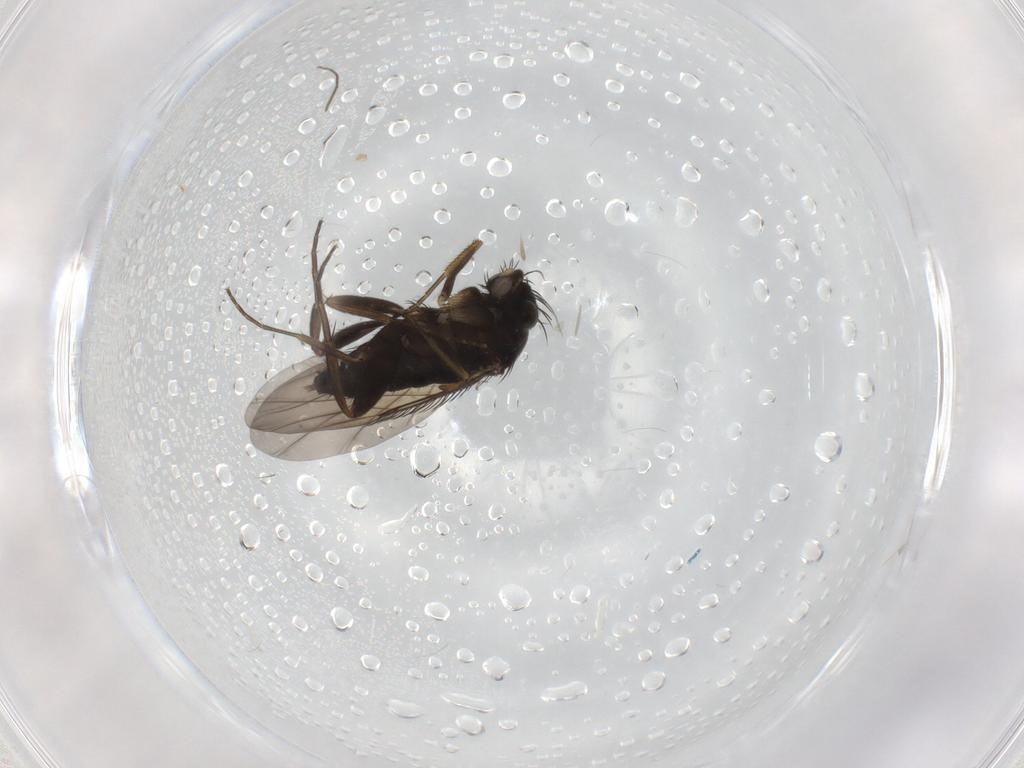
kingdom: Animalia
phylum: Arthropoda
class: Insecta
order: Diptera
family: Phoridae
